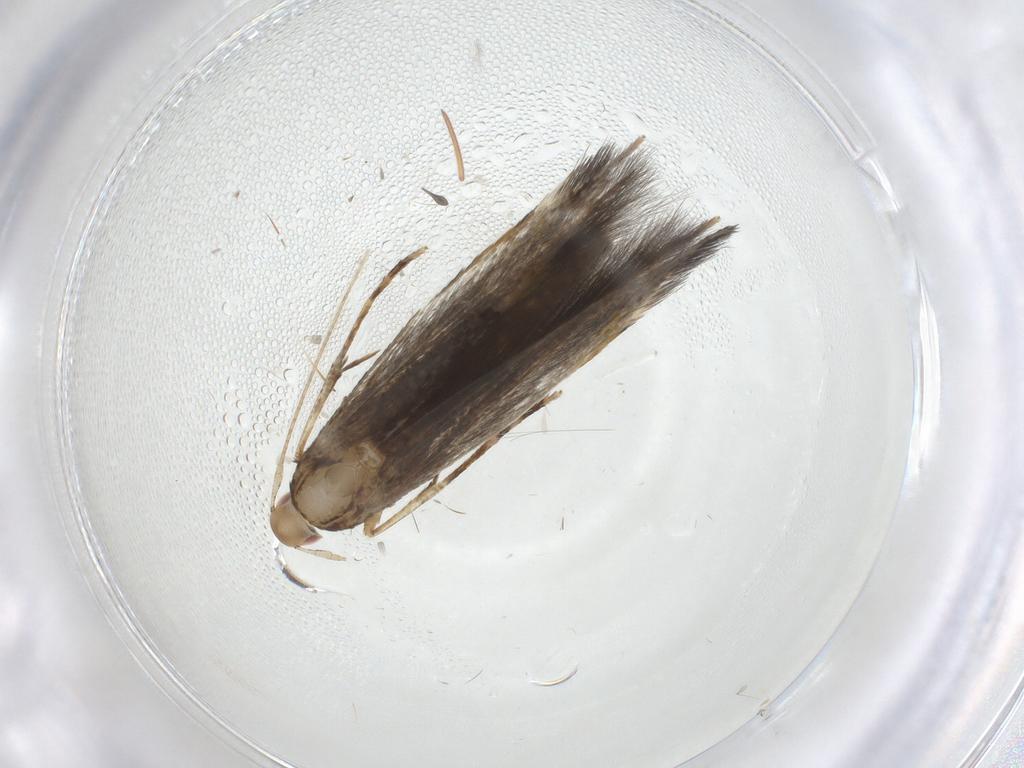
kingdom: Animalia
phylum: Arthropoda
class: Insecta
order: Lepidoptera
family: Cosmopterigidae
